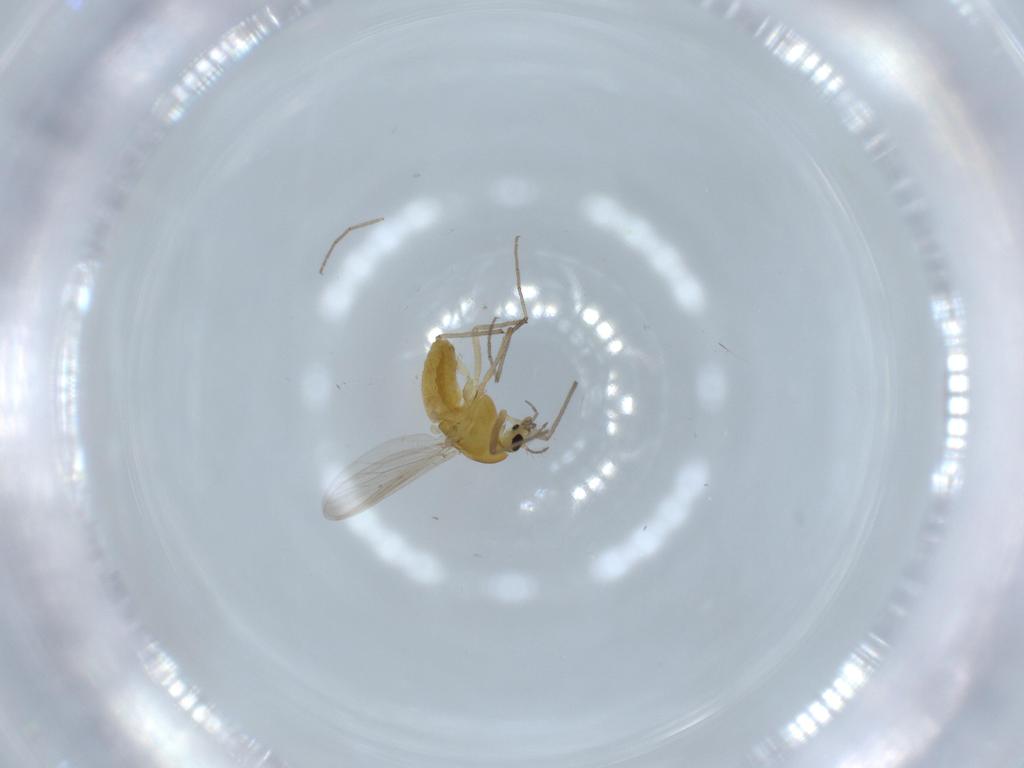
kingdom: Animalia
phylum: Arthropoda
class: Insecta
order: Diptera
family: Chironomidae
